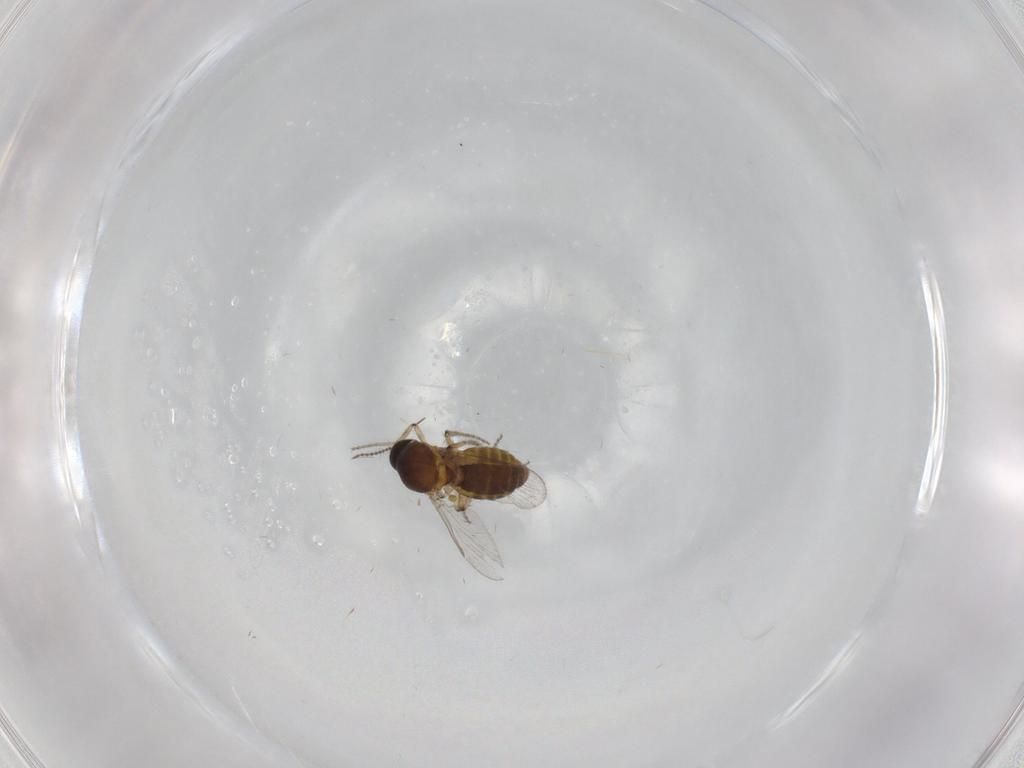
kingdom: Animalia
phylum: Arthropoda
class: Insecta
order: Diptera
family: Ceratopogonidae
